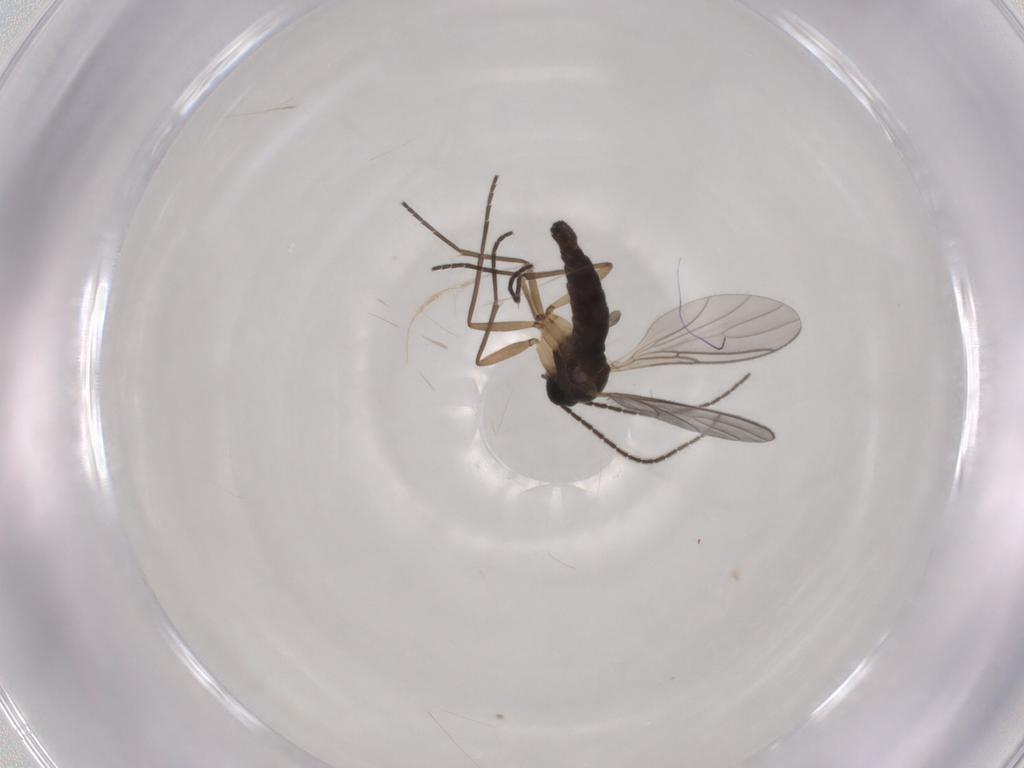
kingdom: Animalia
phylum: Arthropoda
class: Insecta
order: Diptera
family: Sciaridae
